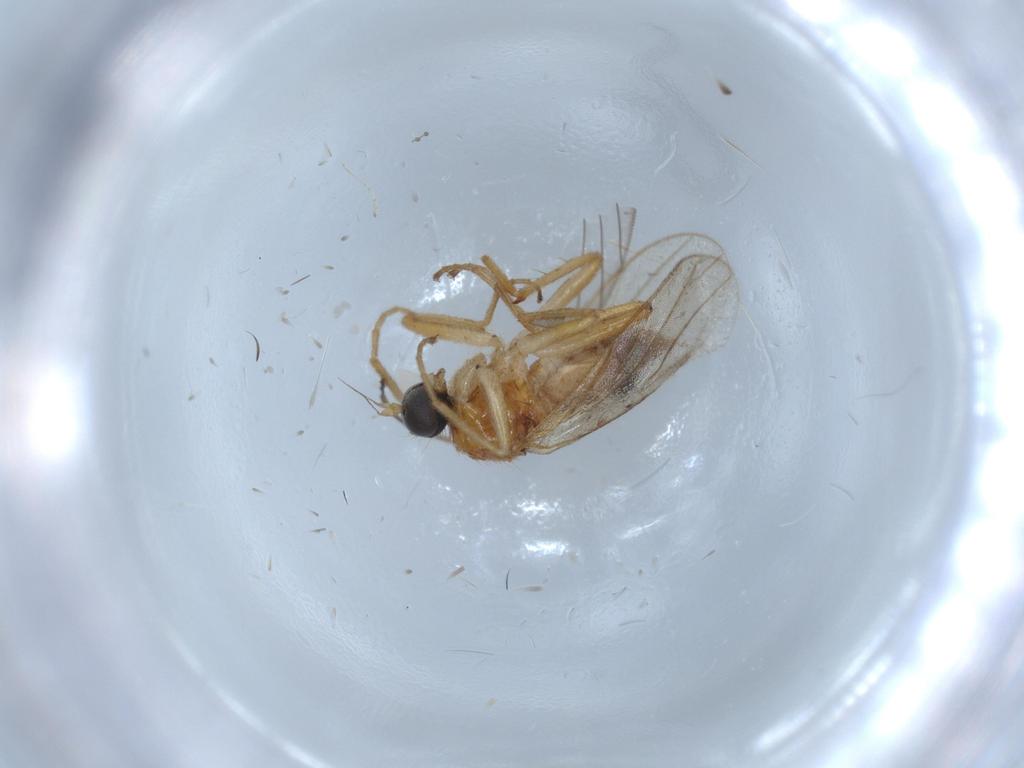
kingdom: Animalia
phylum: Arthropoda
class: Insecta
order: Diptera
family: Hybotidae
